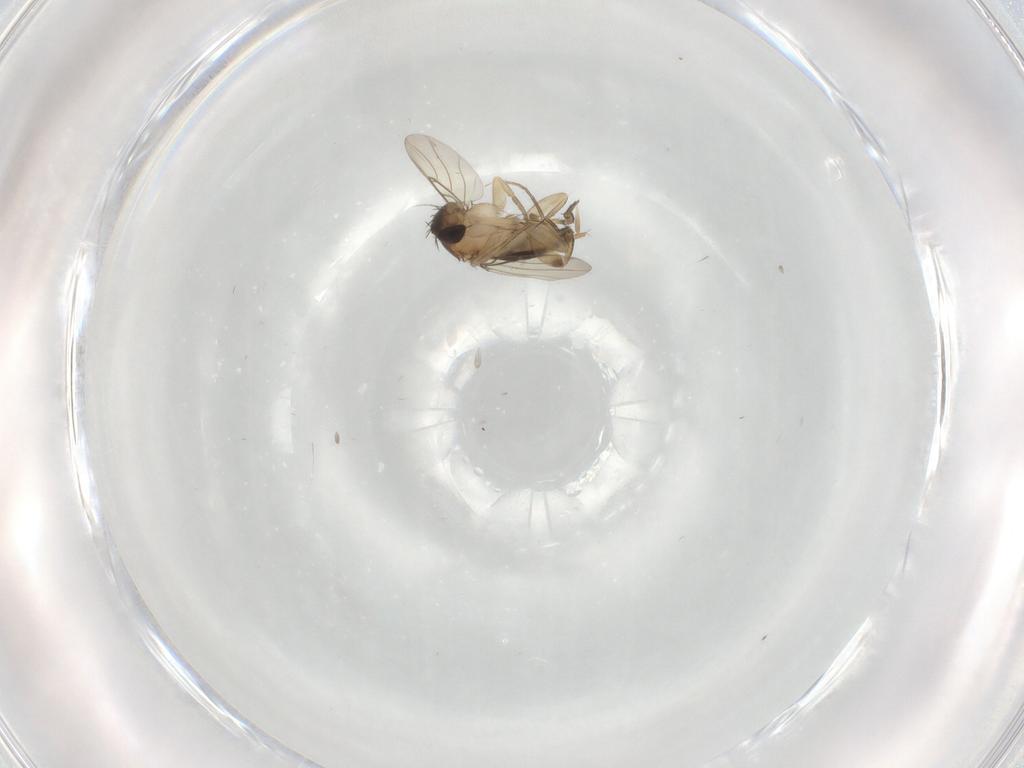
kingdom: Animalia
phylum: Arthropoda
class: Insecta
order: Diptera
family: Phoridae
